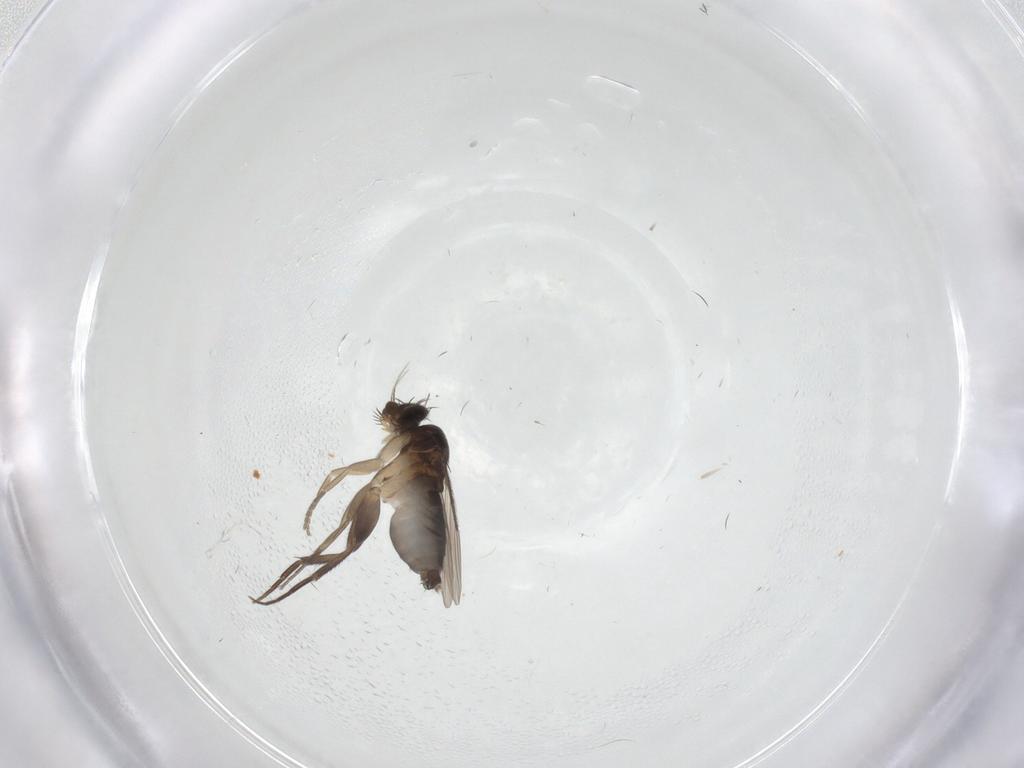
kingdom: Animalia
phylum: Arthropoda
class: Insecta
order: Diptera
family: Phoridae
